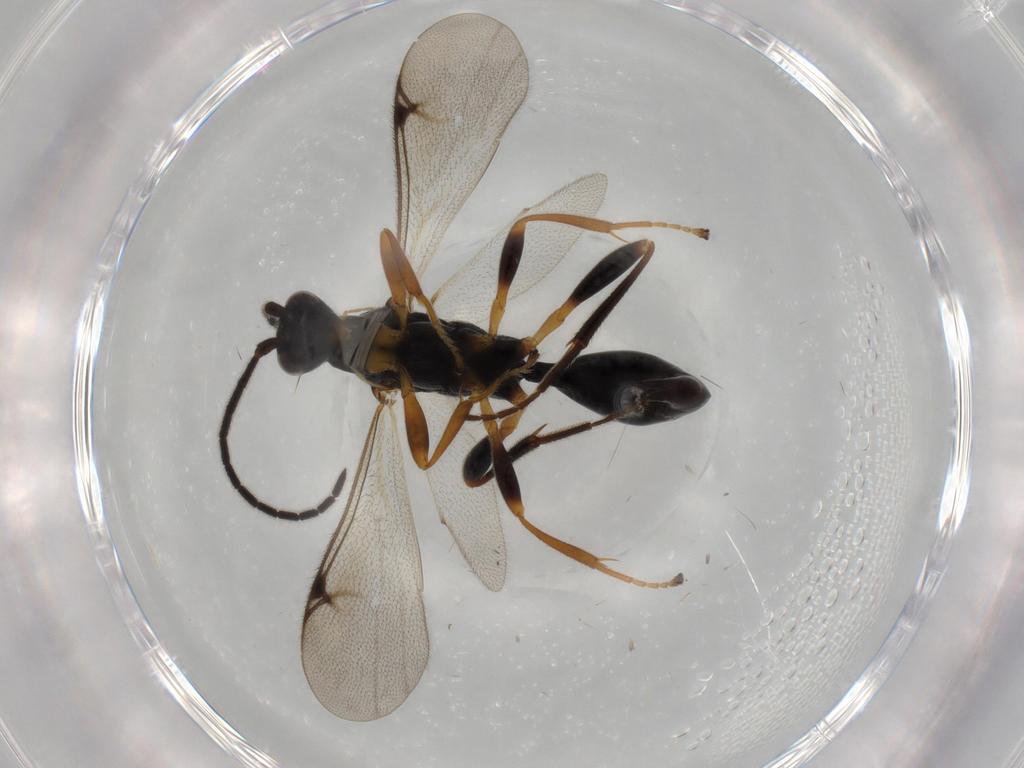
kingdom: Animalia
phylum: Arthropoda
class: Insecta
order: Hymenoptera
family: Proctotrupidae
